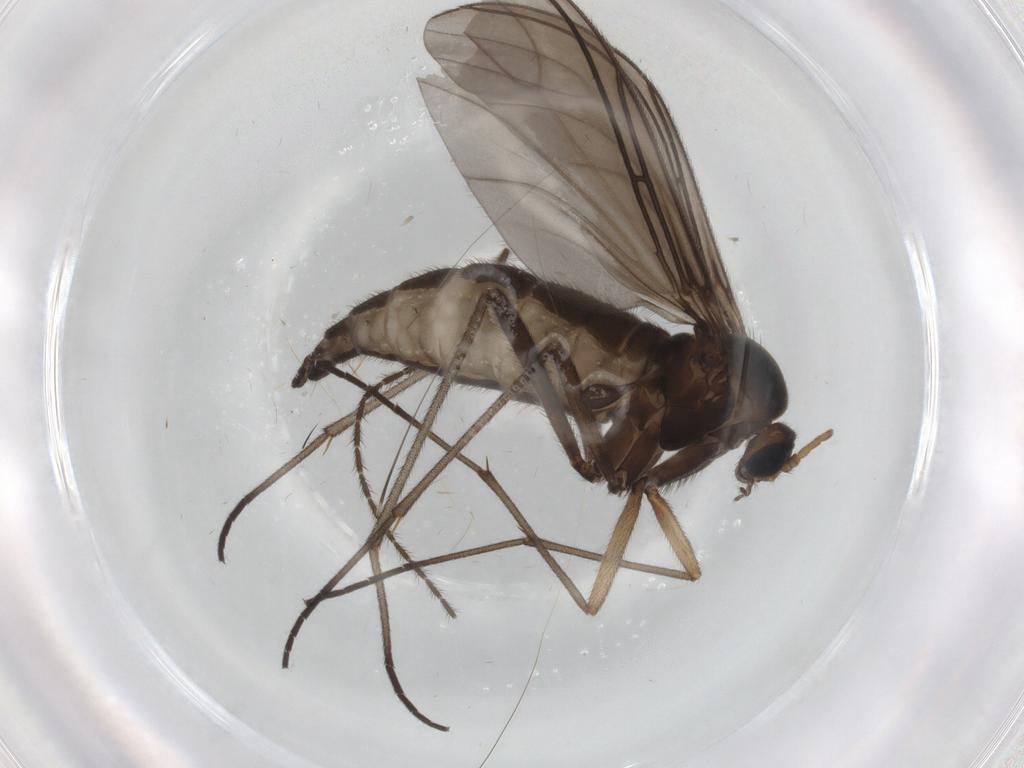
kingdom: Animalia
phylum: Arthropoda
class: Insecta
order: Diptera
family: Sciaridae
